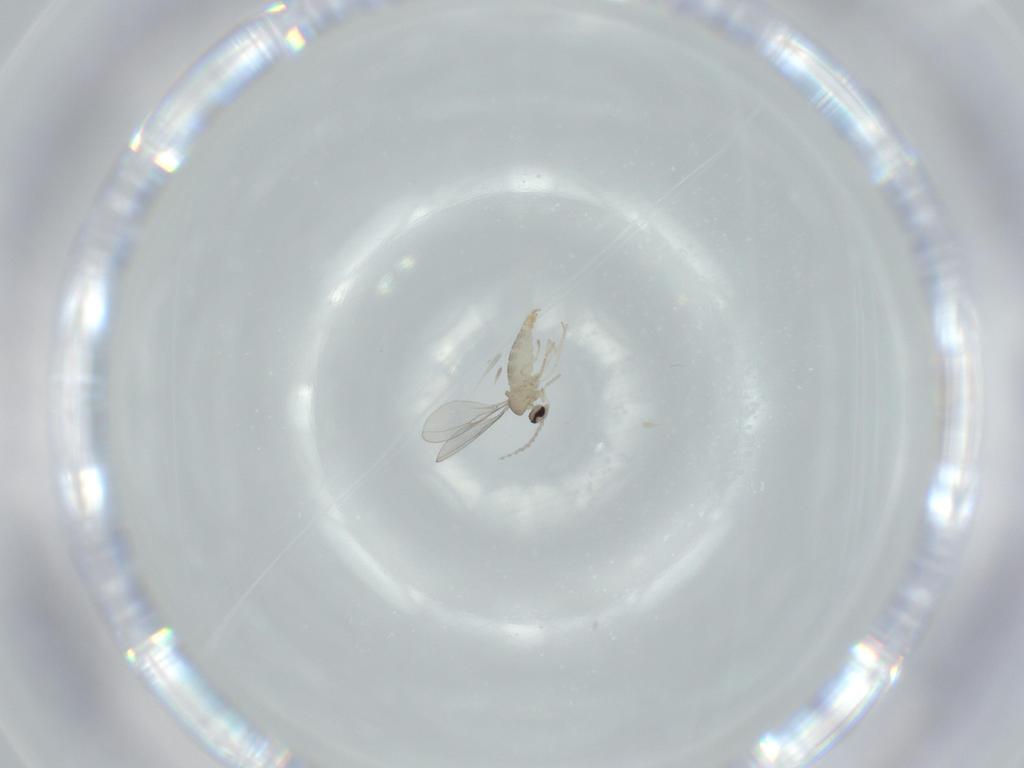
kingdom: Animalia
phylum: Arthropoda
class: Insecta
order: Diptera
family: Cecidomyiidae
